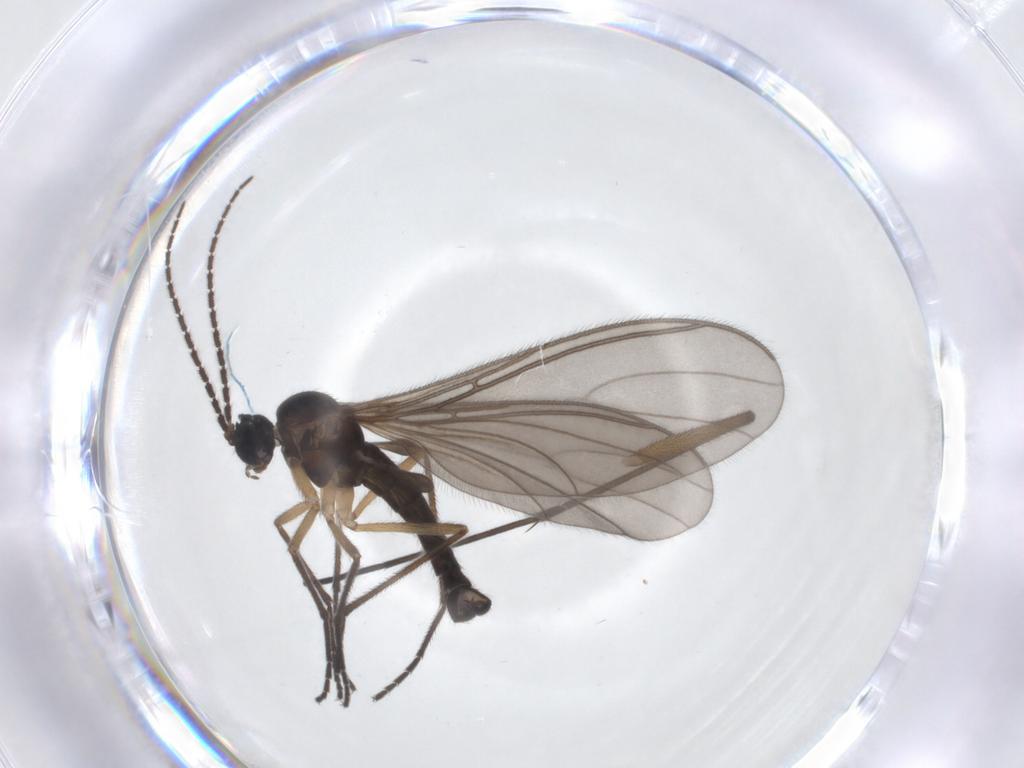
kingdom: Animalia
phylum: Arthropoda
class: Insecta
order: Diptera
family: Sciaridae
